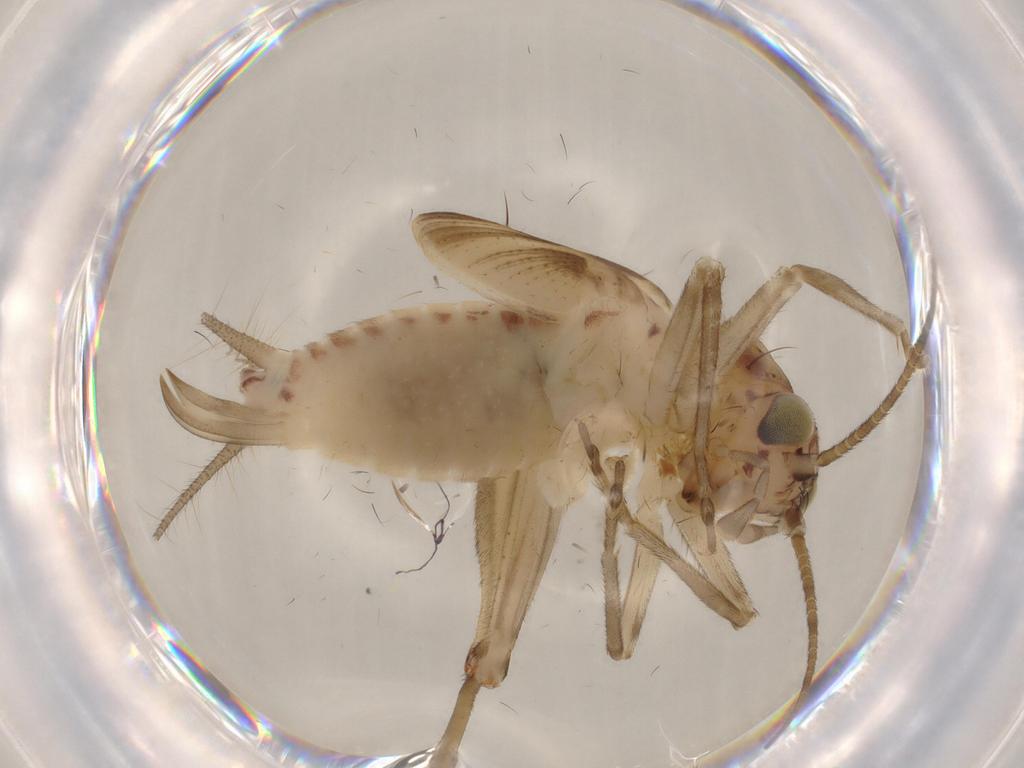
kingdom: Animalia
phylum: Arthropoda
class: Insecta
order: Orthoptera
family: Trigonidiidae
